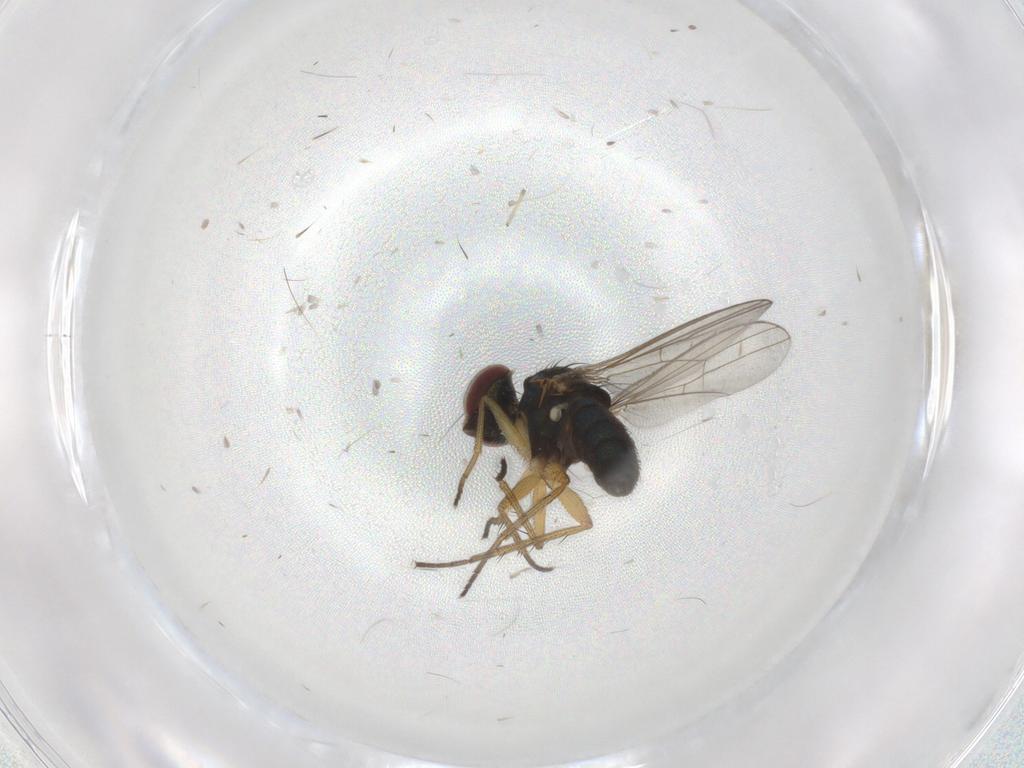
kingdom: Animalia
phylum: Arthropoda
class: Insecta
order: Diptera
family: Dolichopodidae
